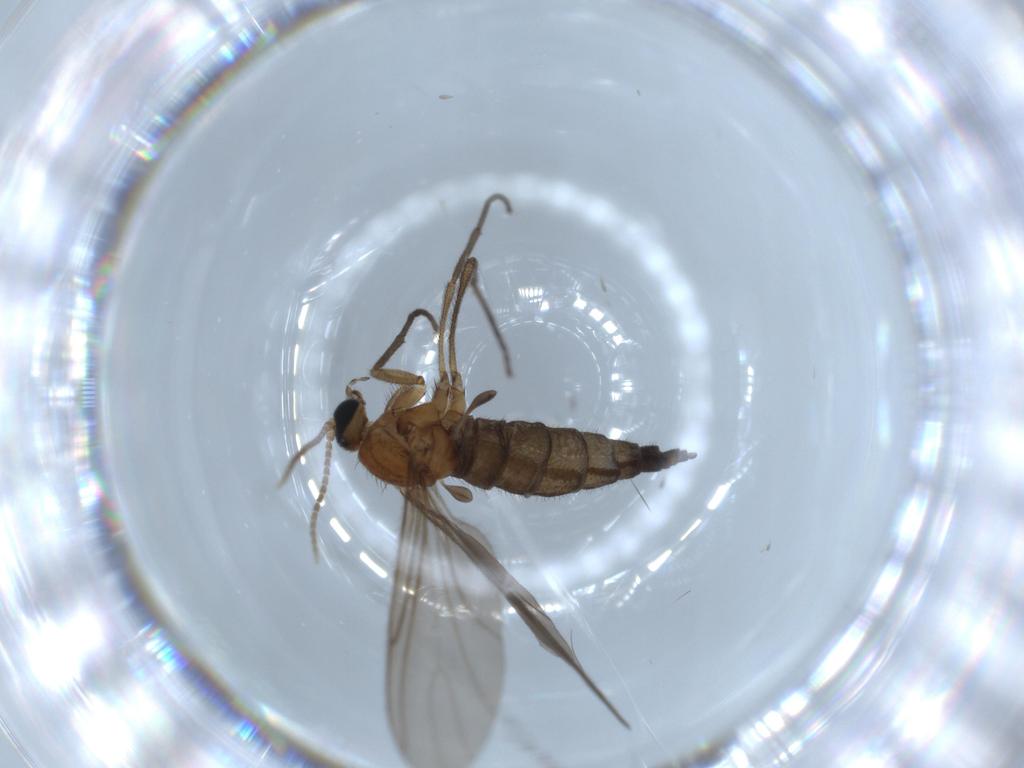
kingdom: Animalia
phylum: Arthropoda
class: Insecta
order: Diptera
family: Sciaridae
